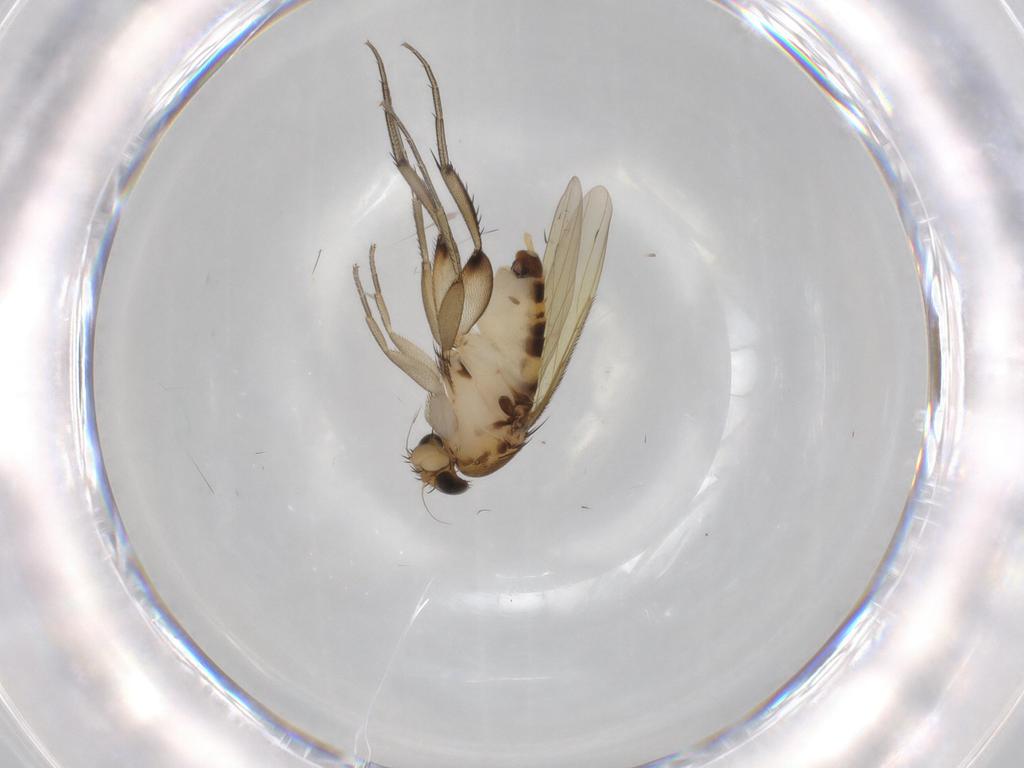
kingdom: Animalia
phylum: Arthropoda
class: Insecta
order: Diptera
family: Phoridae
